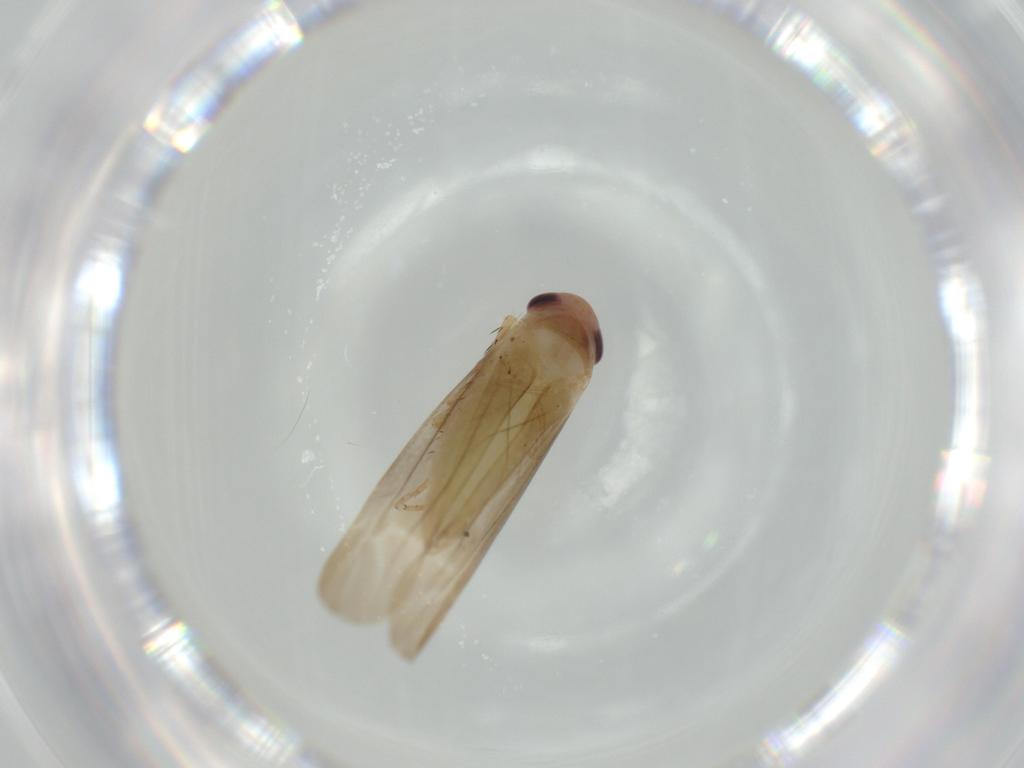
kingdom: Animalia
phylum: Arthropoda
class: Insecta
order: Hemiptera
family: Cicadellidae
